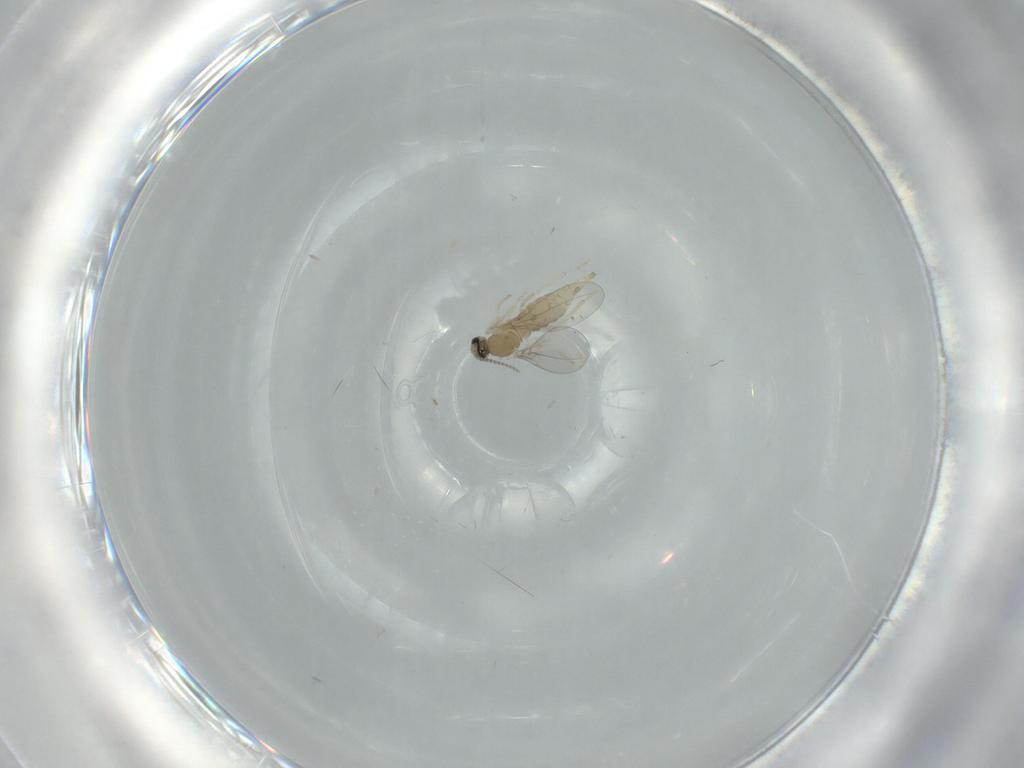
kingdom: Animalia
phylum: Arthropoda
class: Insecta
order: Diptera
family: Cecidomyiidae
